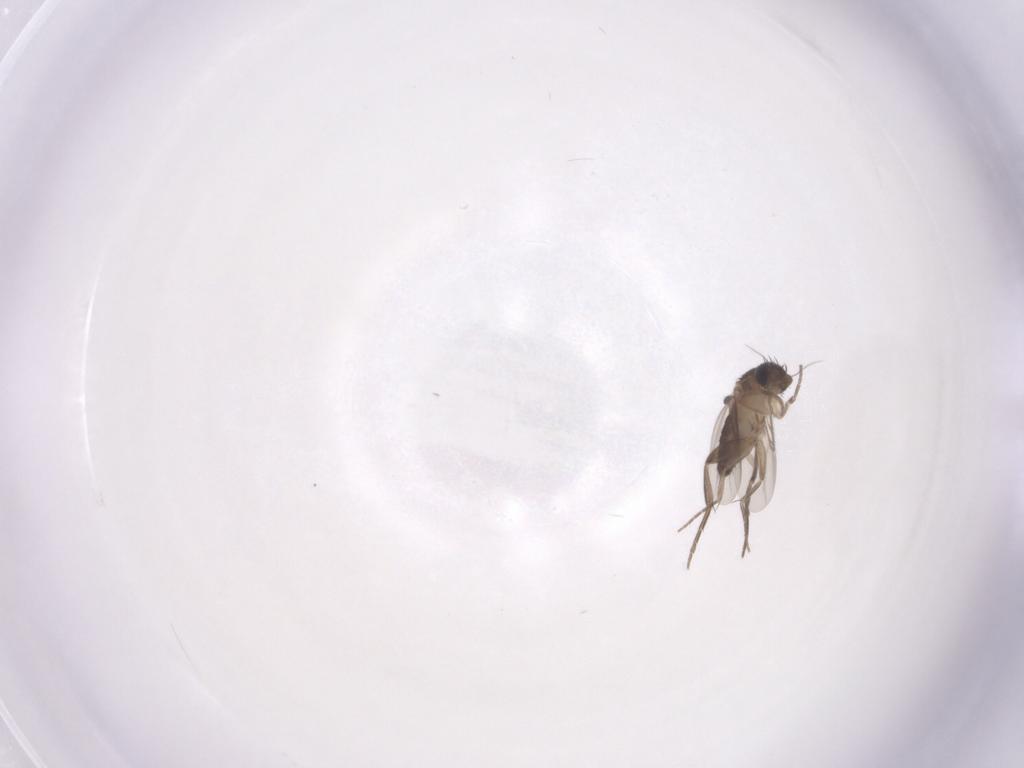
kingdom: Animalia
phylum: Arthropoda
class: Insecta
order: Diptera
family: Phoridae
